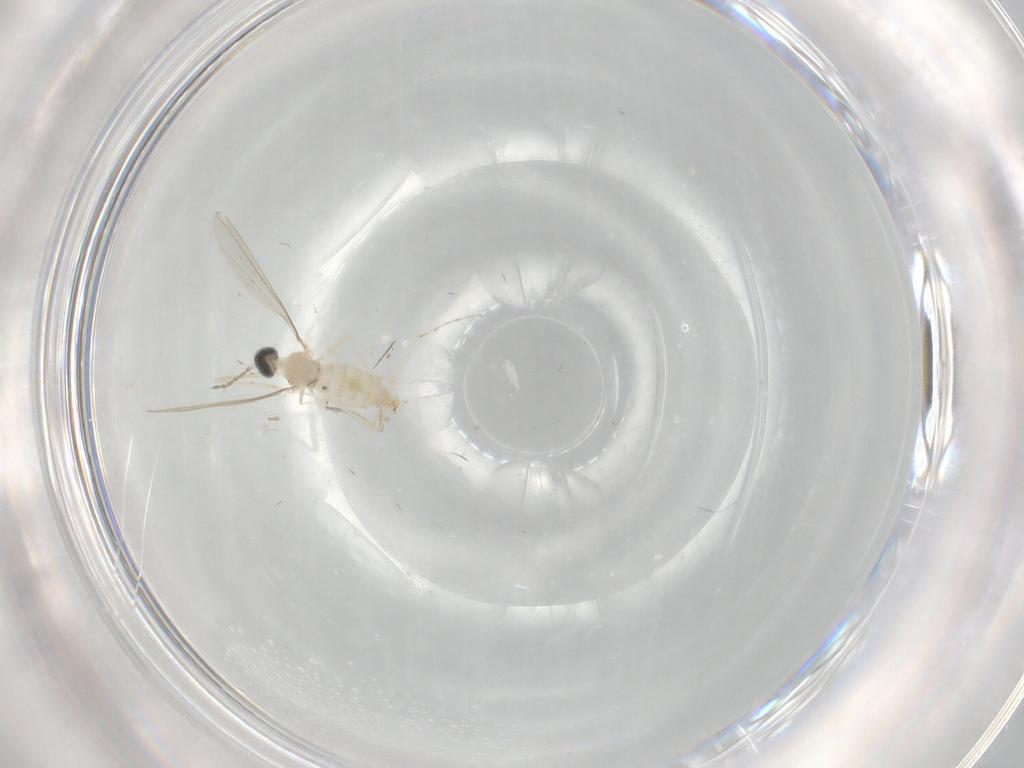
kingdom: Animalia
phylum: Arthropoda
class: Insecta
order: Diptera
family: Cecidomyiidae
